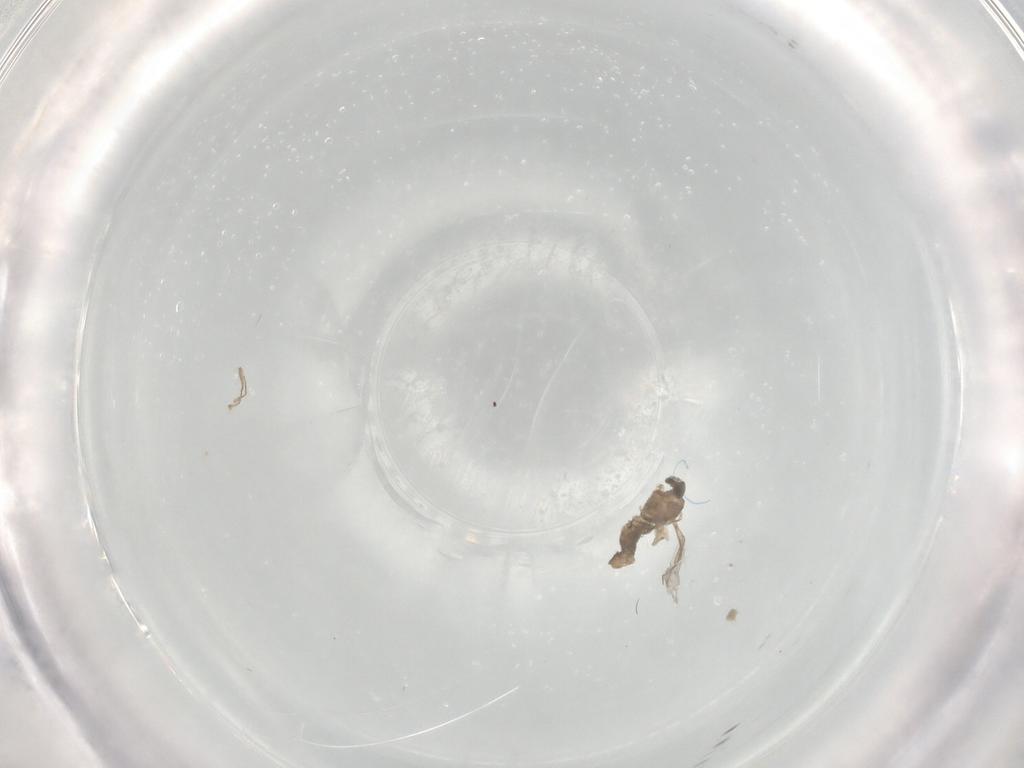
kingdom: Animalia
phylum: Arthropoda
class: Insecta
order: Diptera
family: Cecidomyiidae
